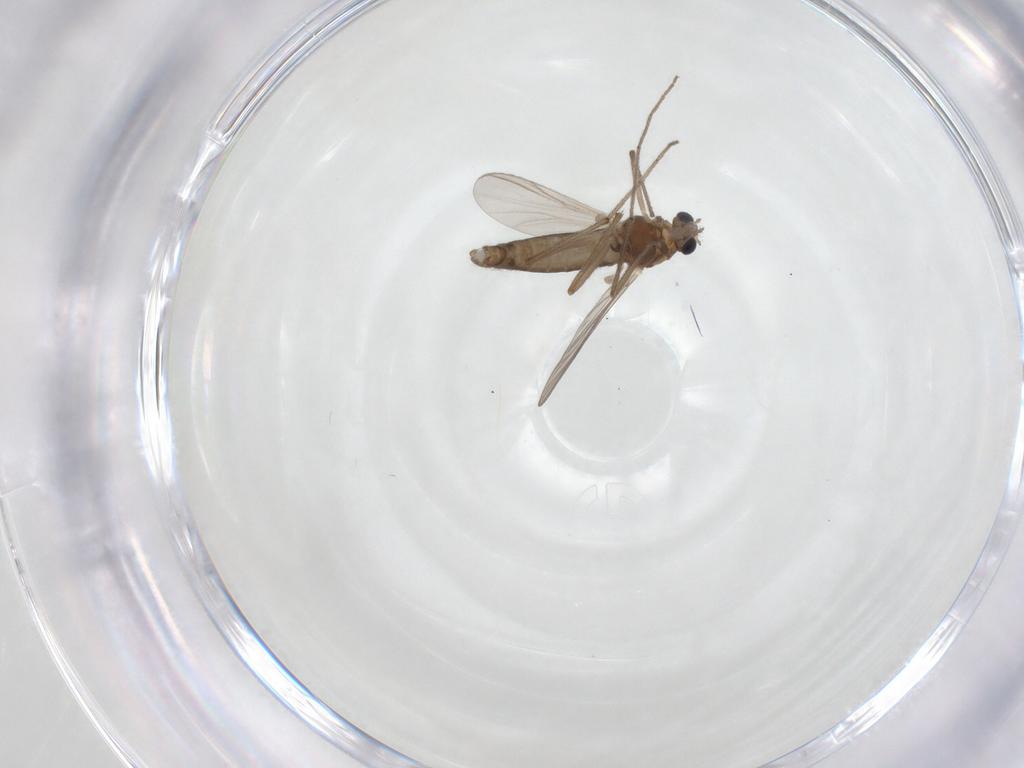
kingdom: Animalia
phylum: Arthropoda
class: Insecta
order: Diptera
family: Chironomidae
